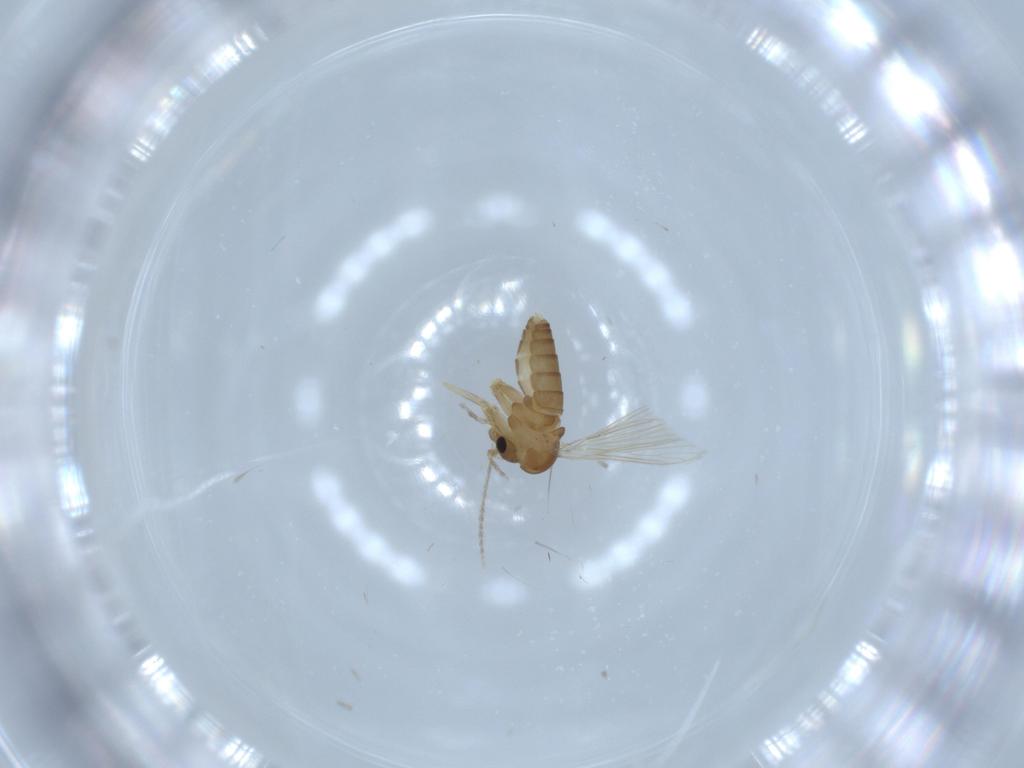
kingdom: Animalia
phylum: Arthropoda
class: Insecta
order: Diptera
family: Psychodidae
